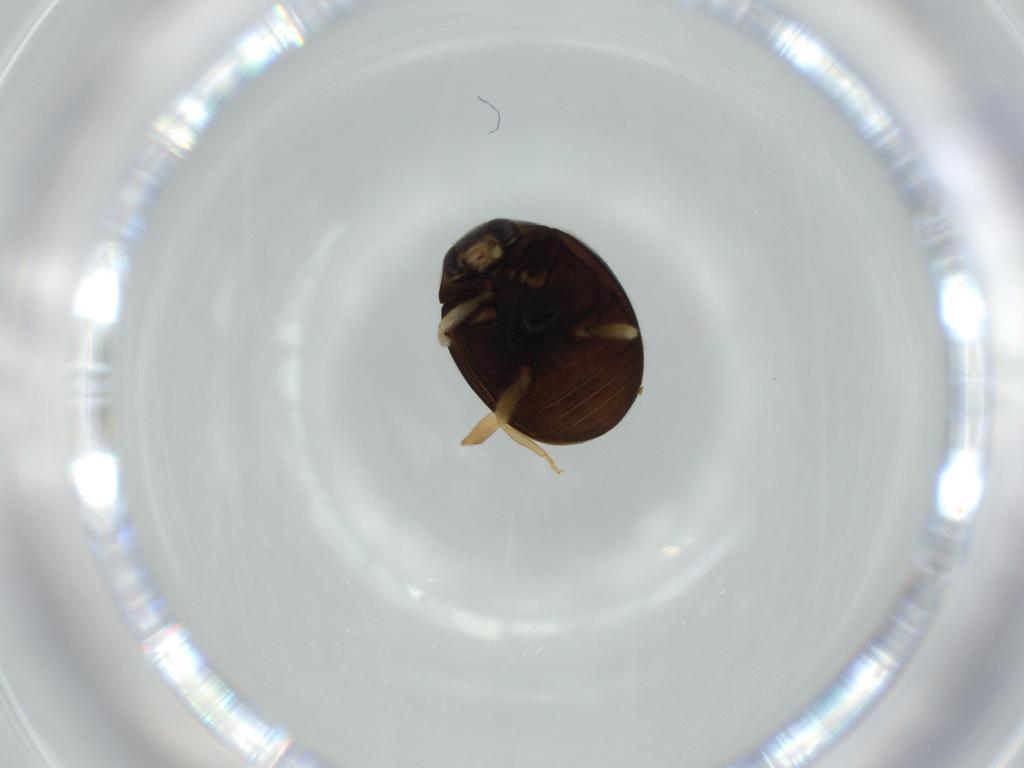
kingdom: Animalia
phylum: Arthropoda
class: Insecta
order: Coleoptera
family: Coccinellidae
